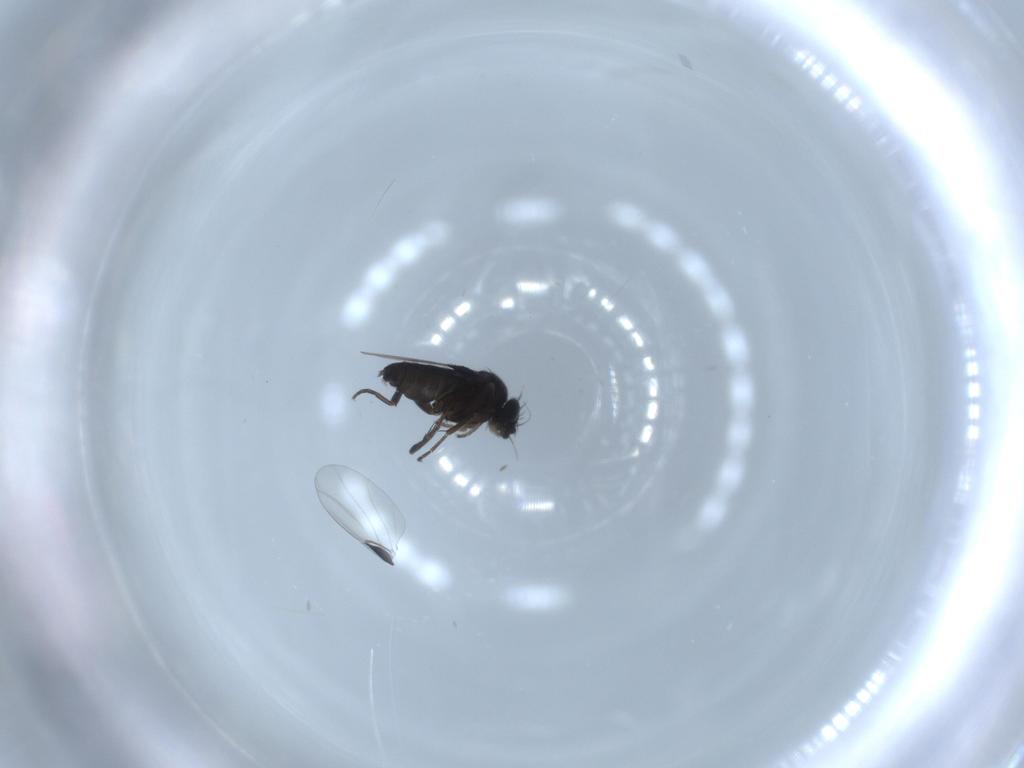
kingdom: Animalia
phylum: Arthropoda
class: Insecta
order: Diptera
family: Phoridae
